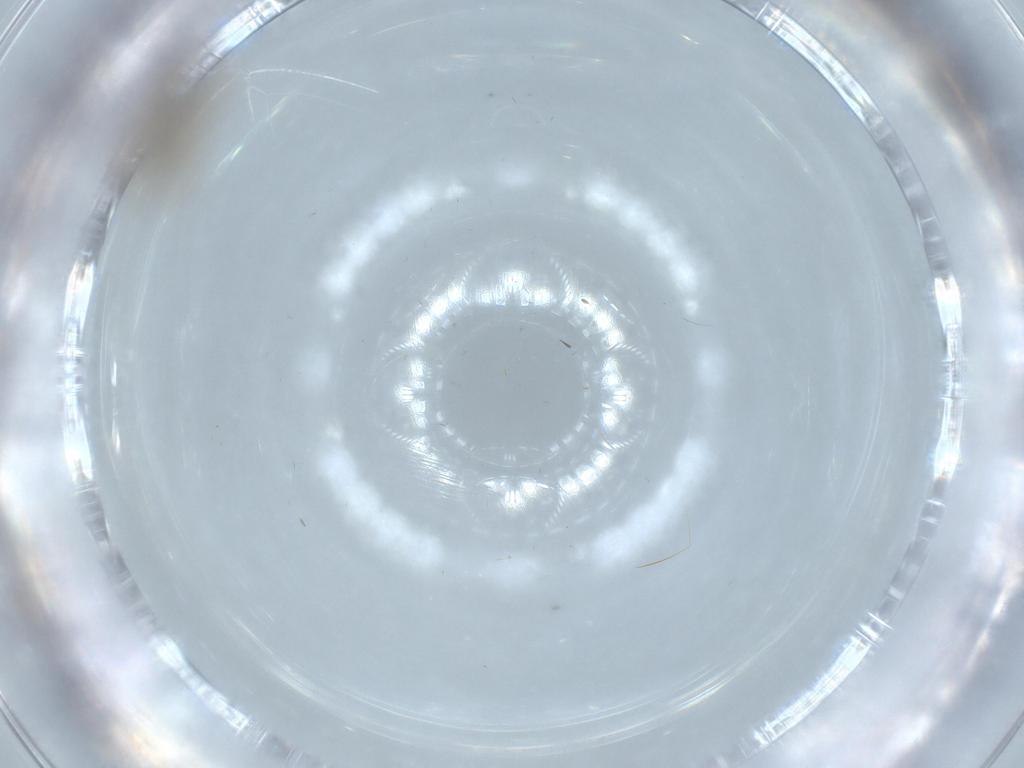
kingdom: Animalia
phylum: Arthropoda
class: Insecta
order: Diptera
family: Chironomidae
